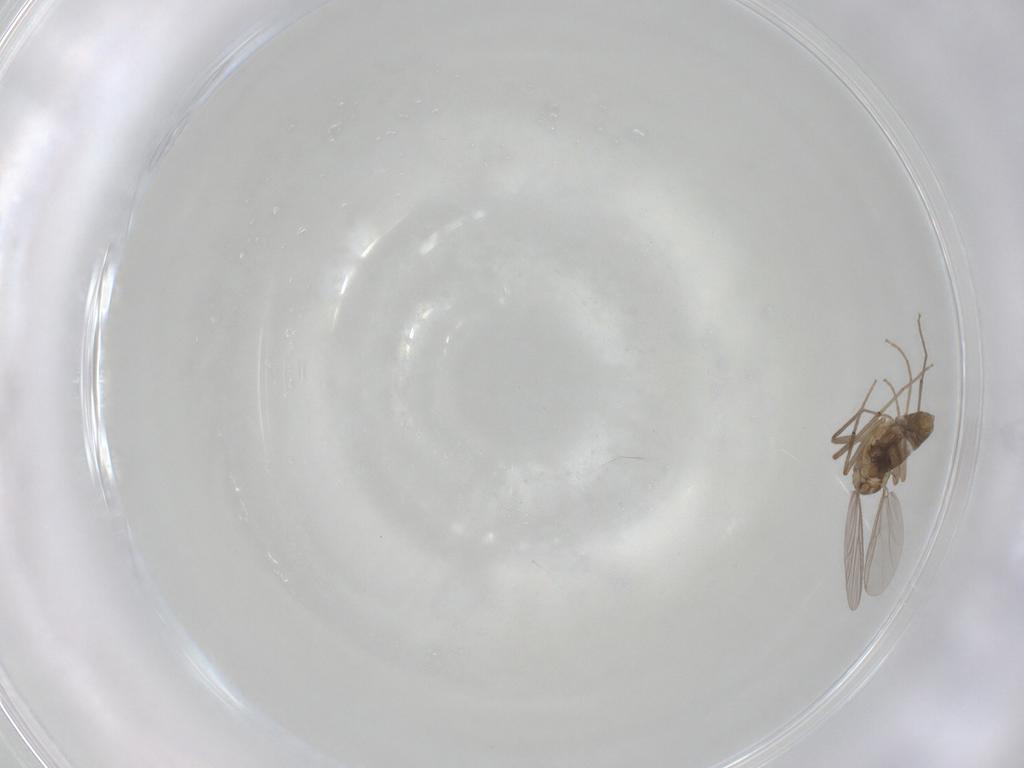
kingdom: Animalia
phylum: Arthropoda
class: Insecta
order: Diptera
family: Chironomidae
